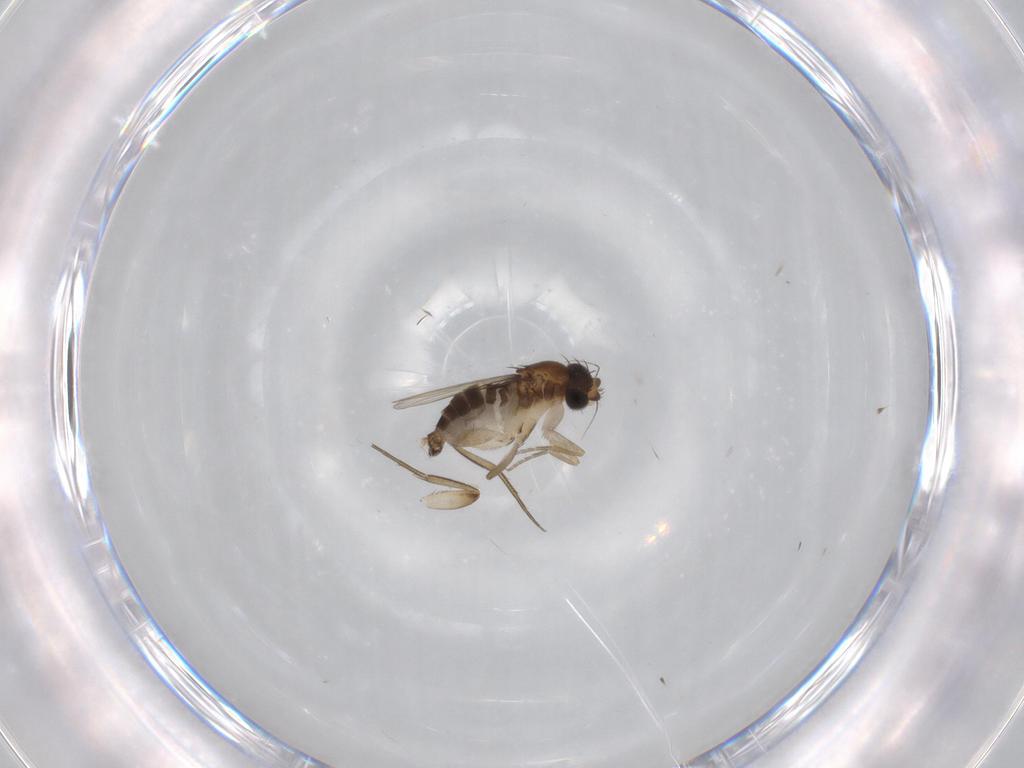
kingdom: Animalia
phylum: Arthropoda
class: Insecta
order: Diptera
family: Phoridae
